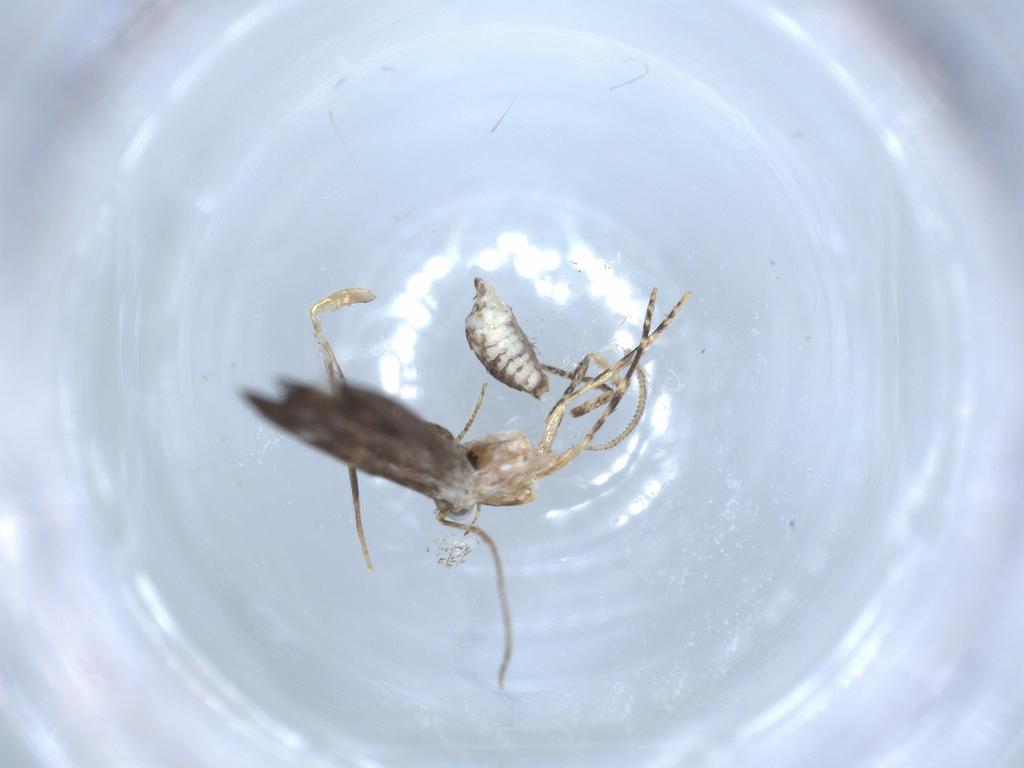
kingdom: Animalia
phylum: Arthropoda
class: Insecta
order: Lepidoptera
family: Tineidae
